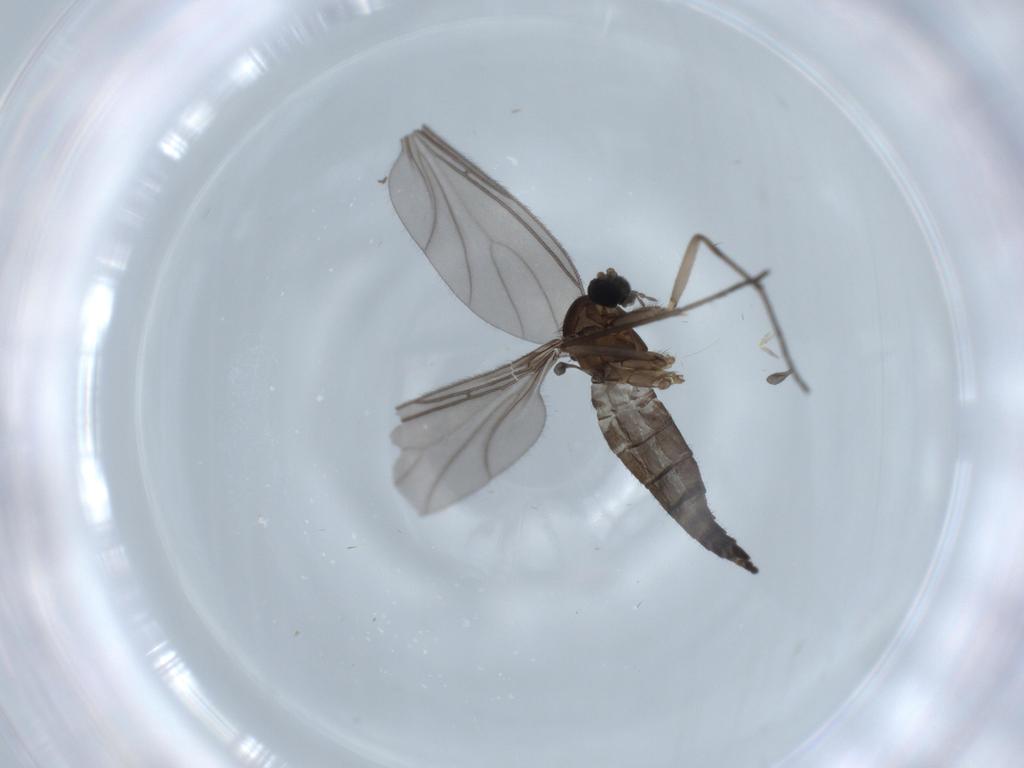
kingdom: Animalia
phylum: Arthropoda
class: Insecta
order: Diptera
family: Sciaridae
